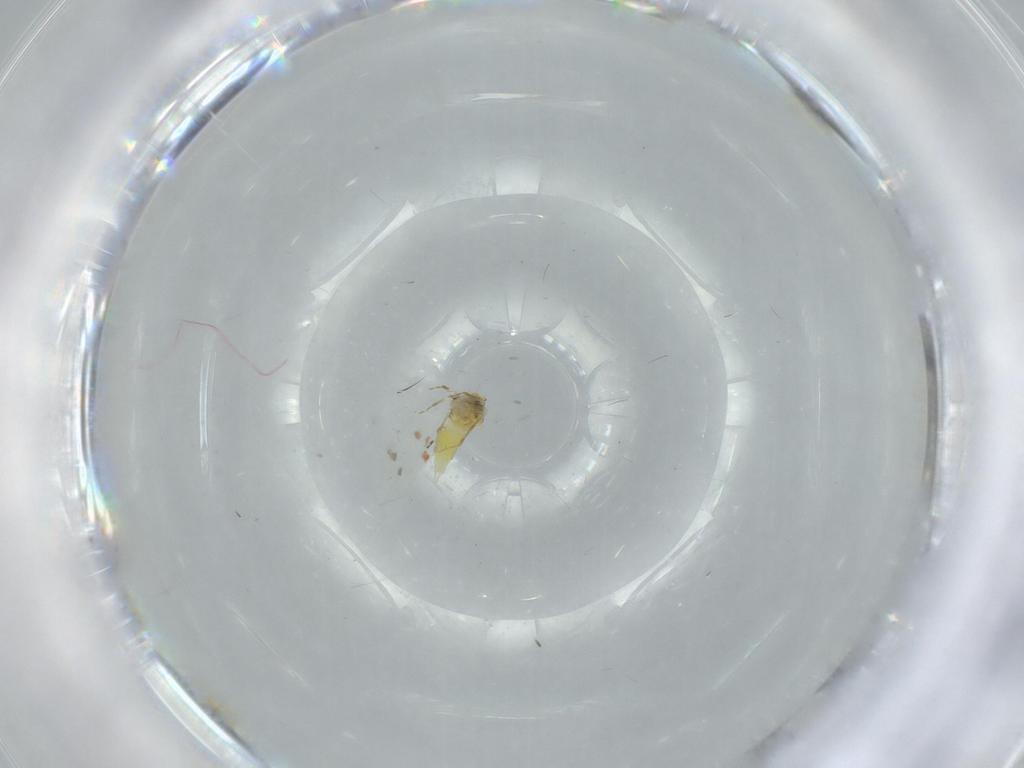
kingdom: Animalia
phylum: Arthropoda
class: Insecta
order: Hemiptera
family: Aleyrodidae
